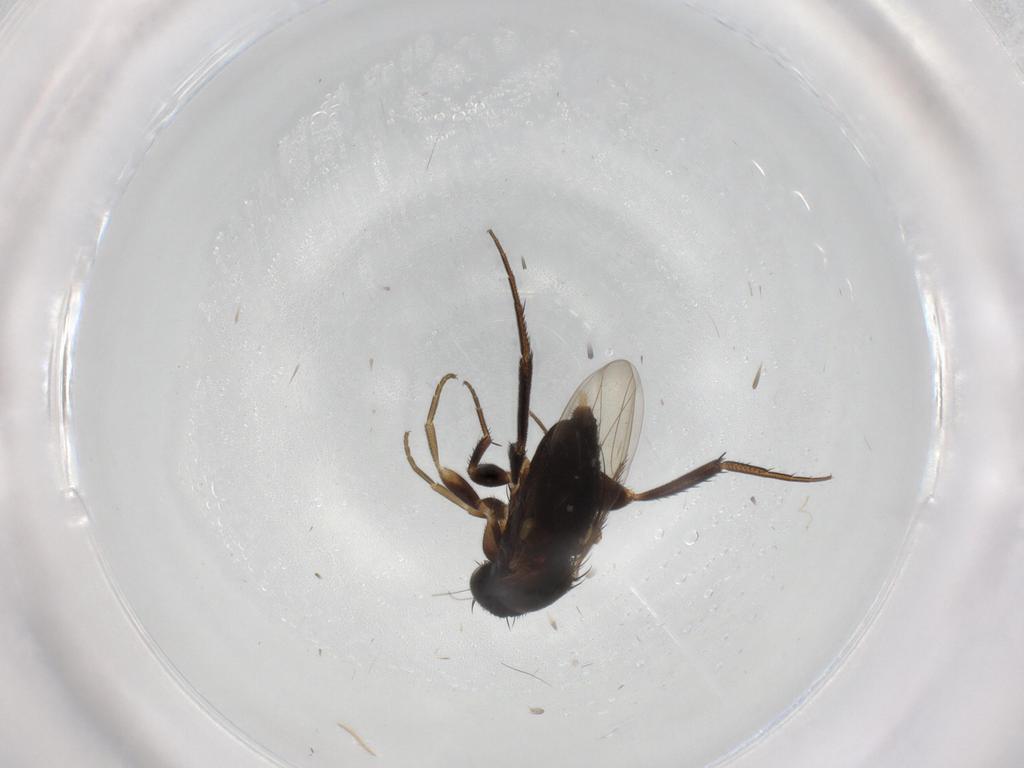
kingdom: Animalia
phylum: Arthropoda
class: Insecta
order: Diptera
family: Phoridae
